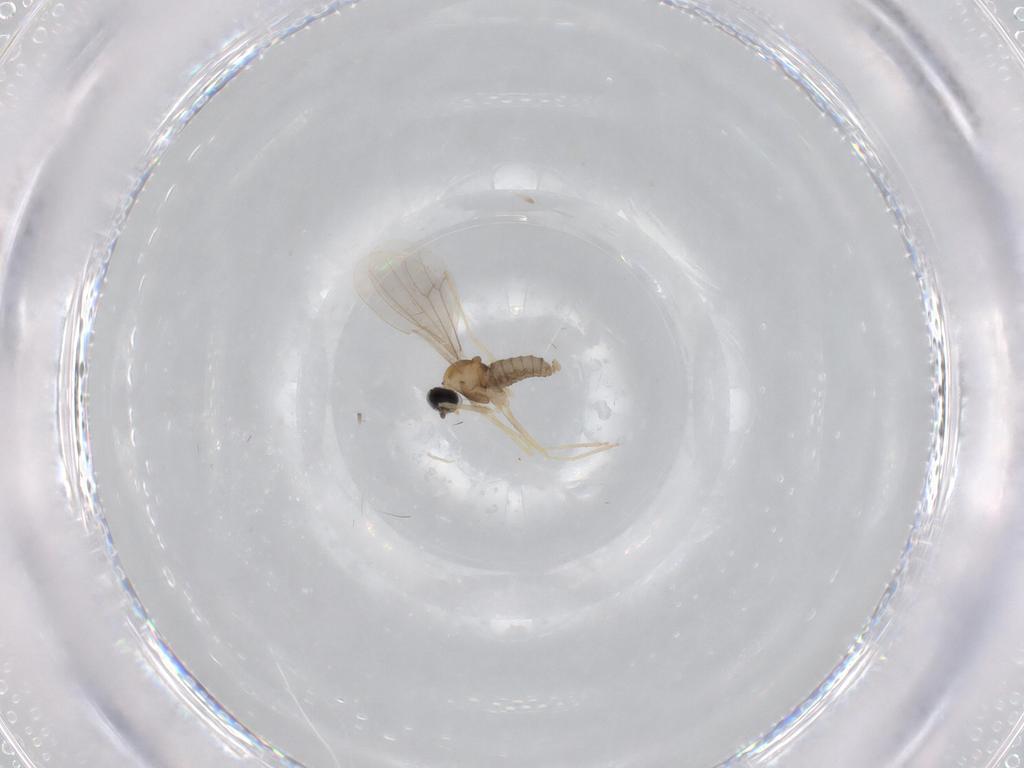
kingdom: Animalia
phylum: Arthropoda
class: Insecta
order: Diptera
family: Cecidomyiidae
